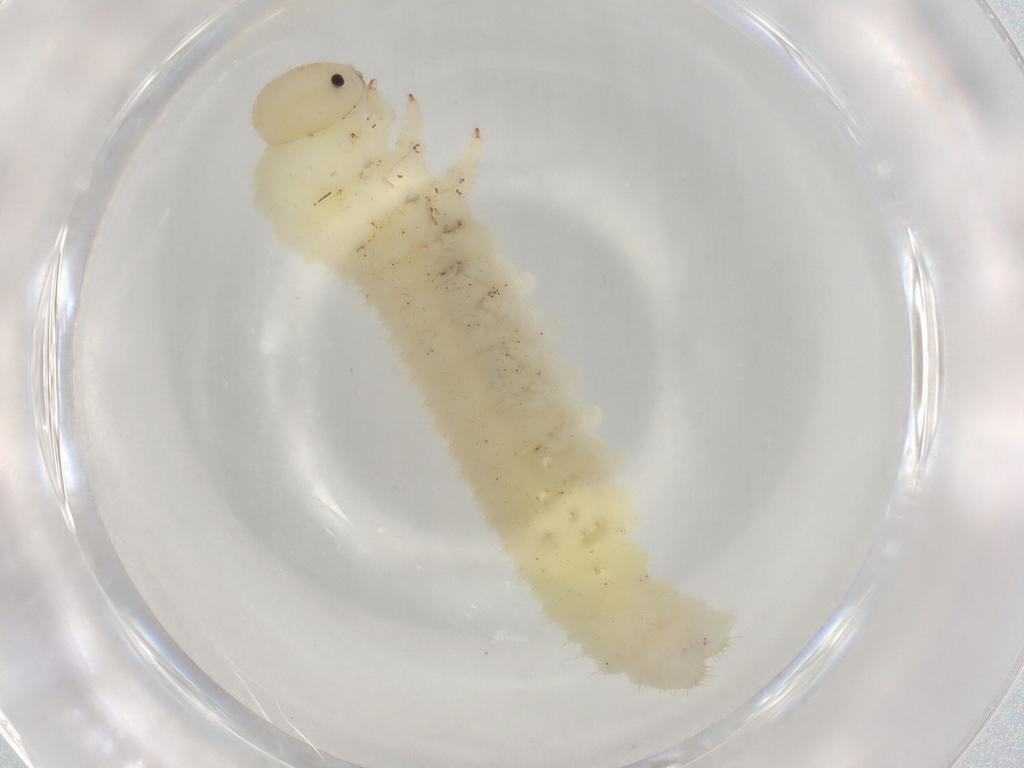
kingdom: Animalia
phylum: Arthropoda
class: Insecta
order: Hymenoptera
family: Tenthredinidae
